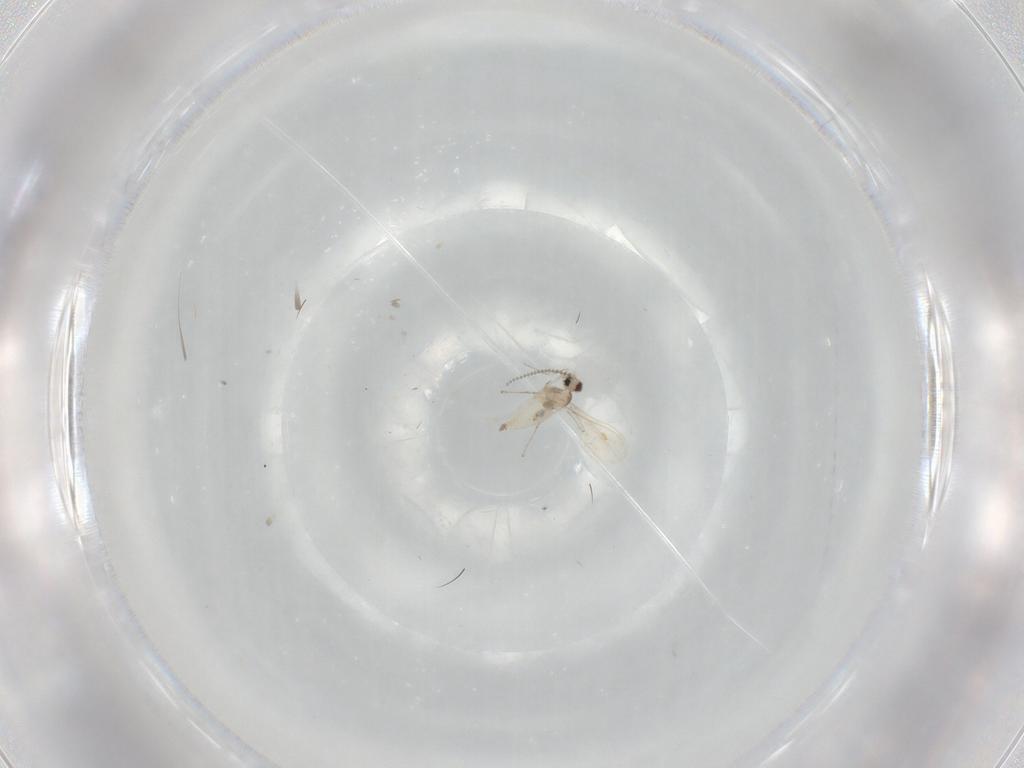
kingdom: Animalia
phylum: Arthropoda
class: Insecta
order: Diptera
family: Cecidomyiidae
